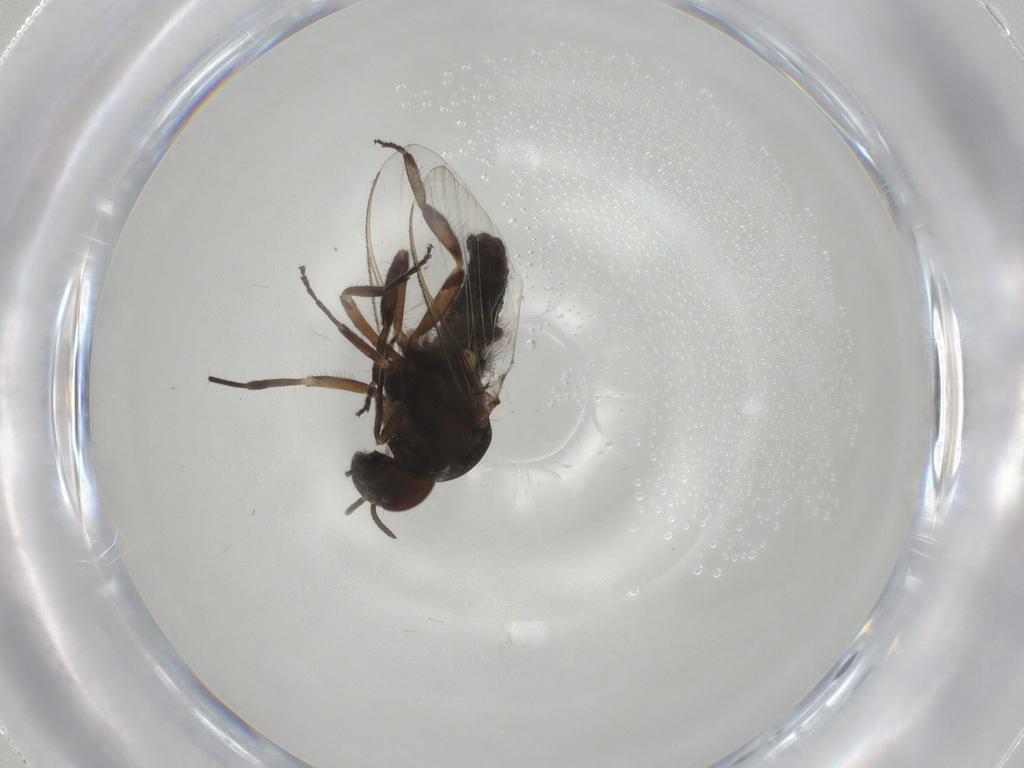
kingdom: Animalia
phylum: Arthropoda
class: Insecta
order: Diptera
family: Chironomidae
